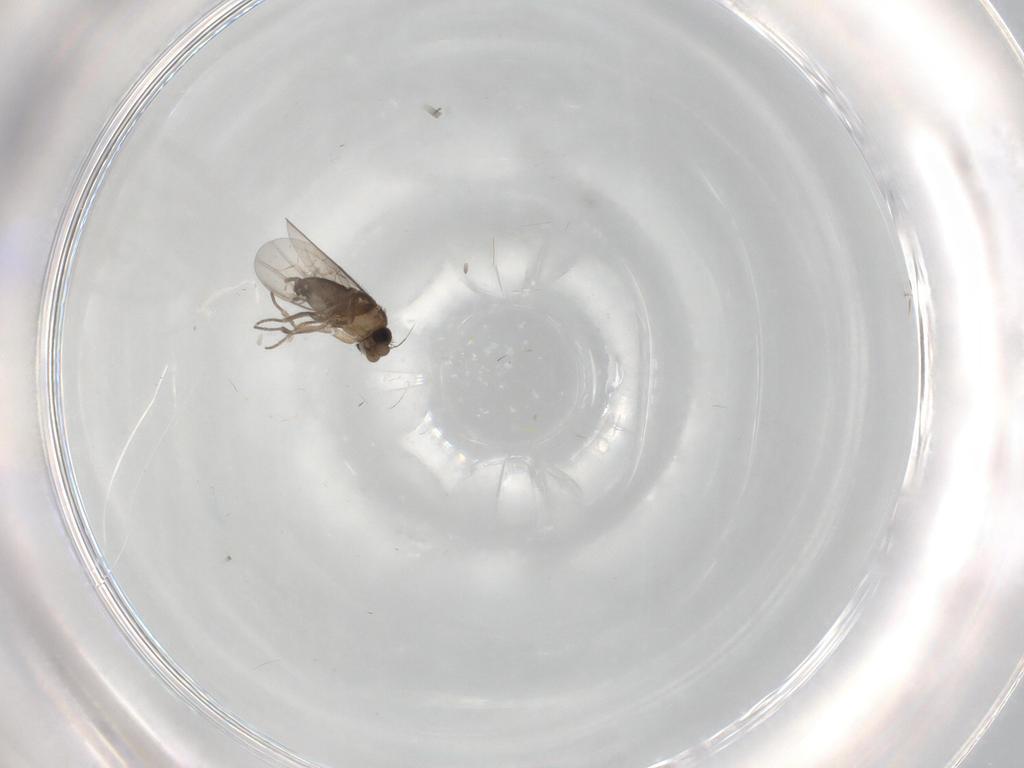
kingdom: Animalia
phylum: Arthropoda
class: Insecta
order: Diptera
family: Phoridae
